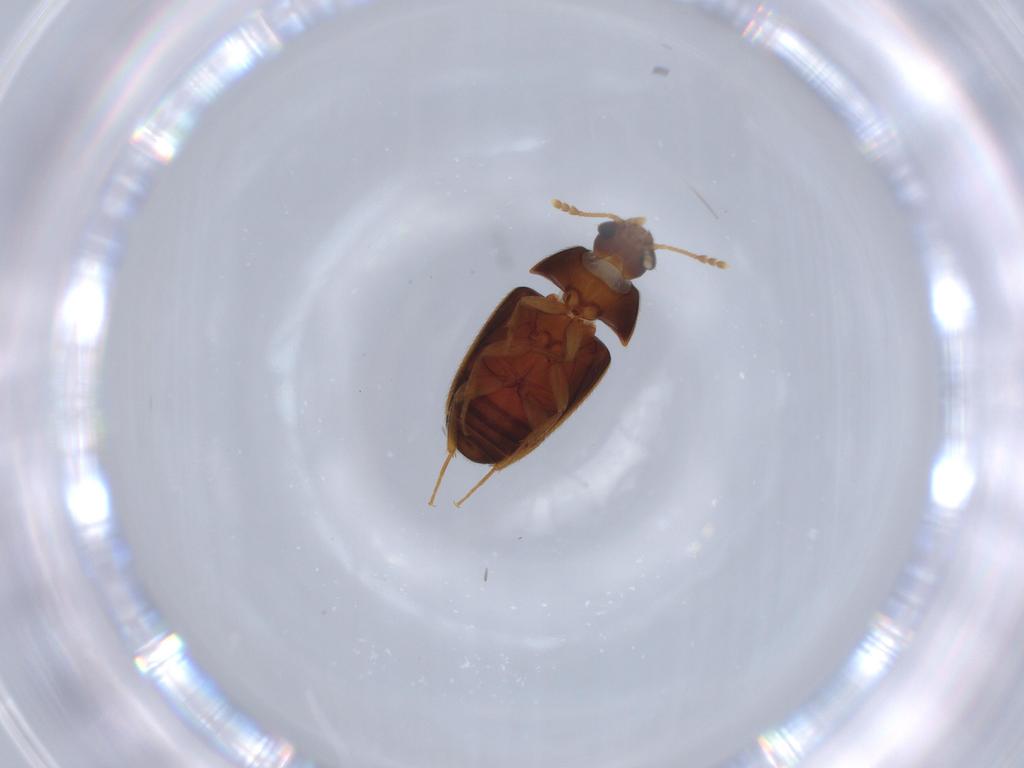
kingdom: Animalia
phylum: Arthropoda
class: Insecta
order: Coleoptera
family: Mycetophagidae
